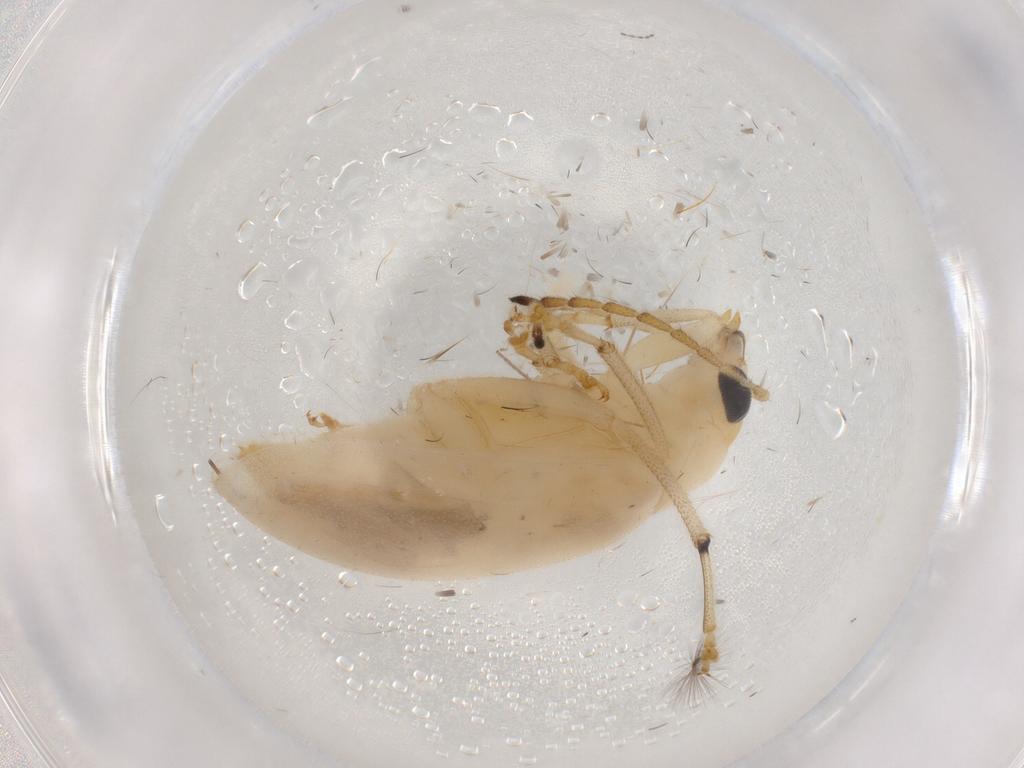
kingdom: Animalia
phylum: Arthropoda
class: Insecta
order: Coleoptera
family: Chrysomelidae
